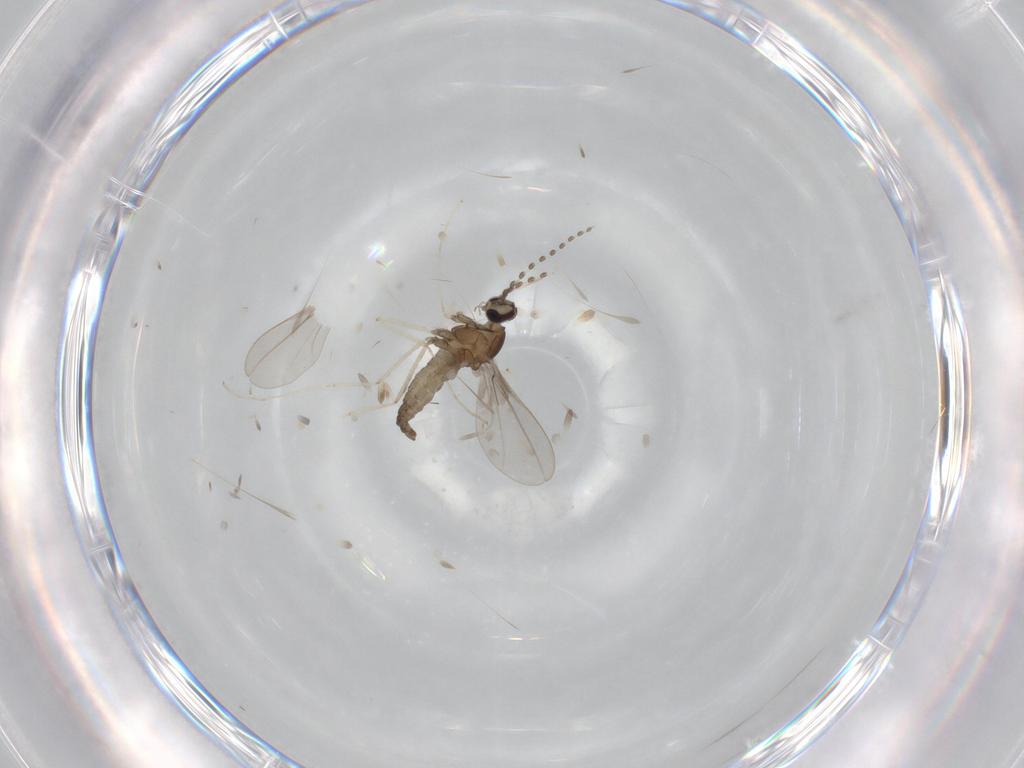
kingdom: Animalia
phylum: Arthropoda
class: Insecta
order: Diptera
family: Cecidomyiidae
